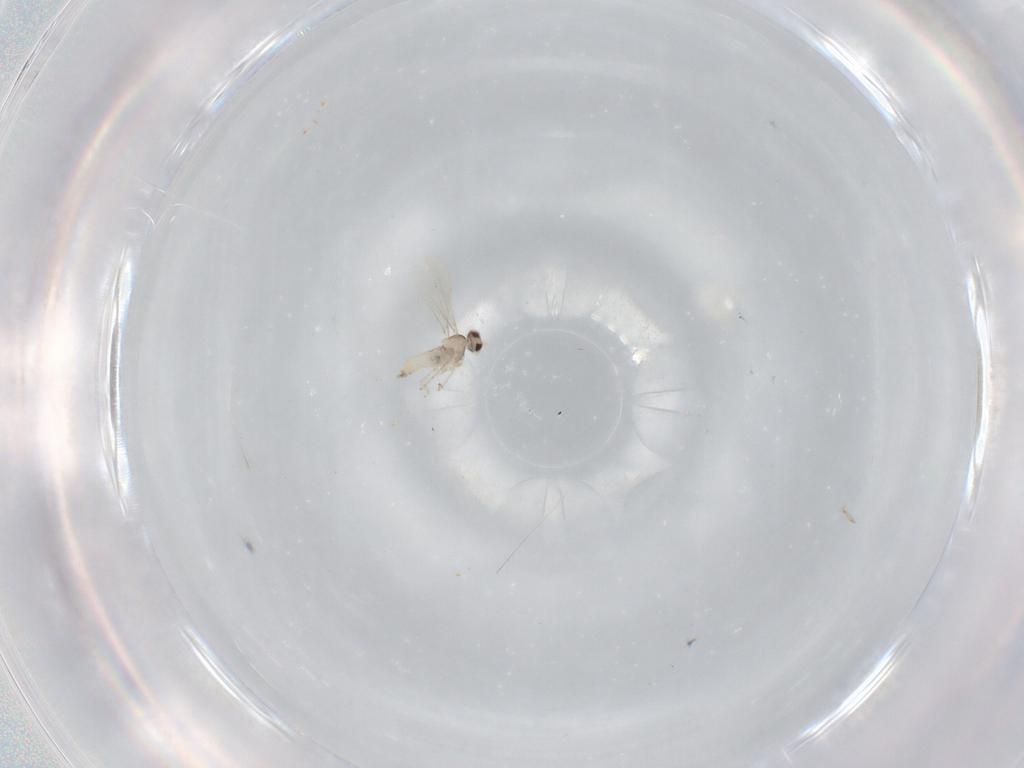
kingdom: Animalia
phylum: Arthropoda
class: Insecta
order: Diptera
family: Cecidomyiidae
